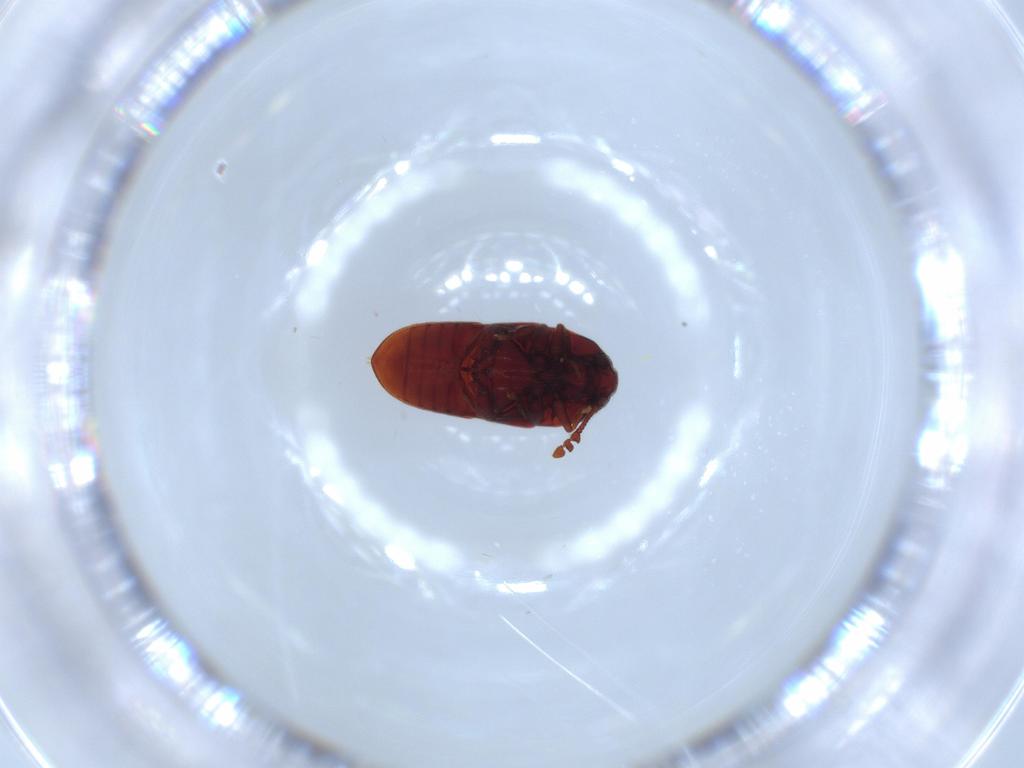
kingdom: Animalia
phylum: Arthropoda
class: Insecta
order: Coleoptera
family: Throscidae
